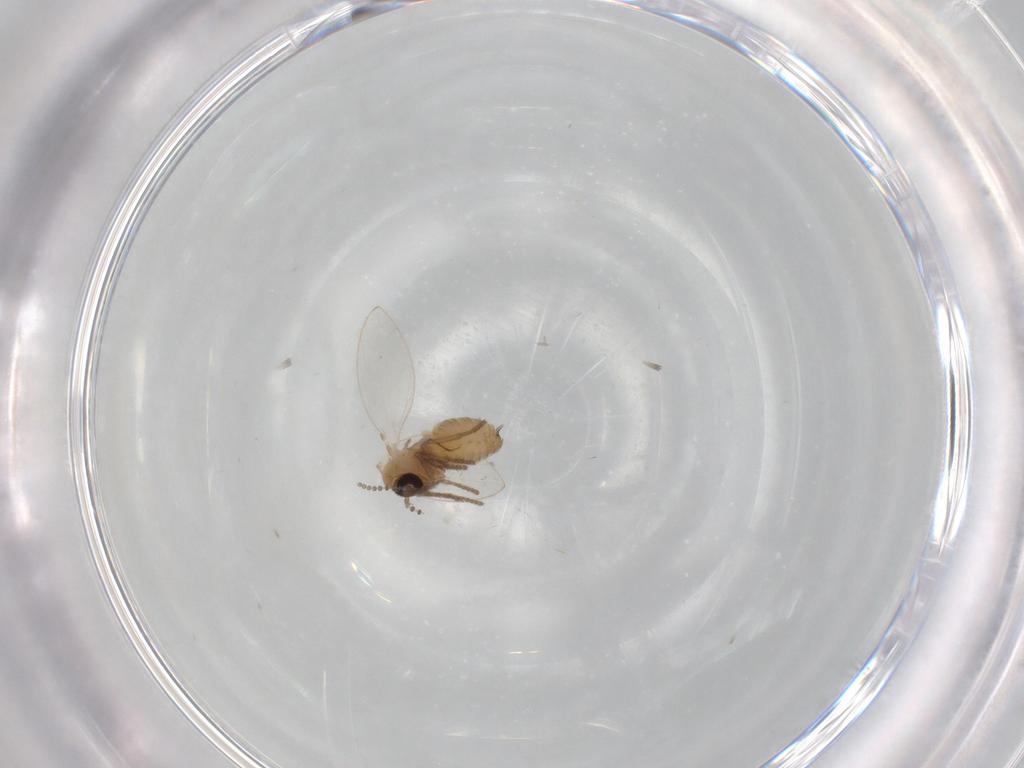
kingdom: Animalia
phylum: Arthropoda
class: Insecta
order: Diptera
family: Psychodidae
